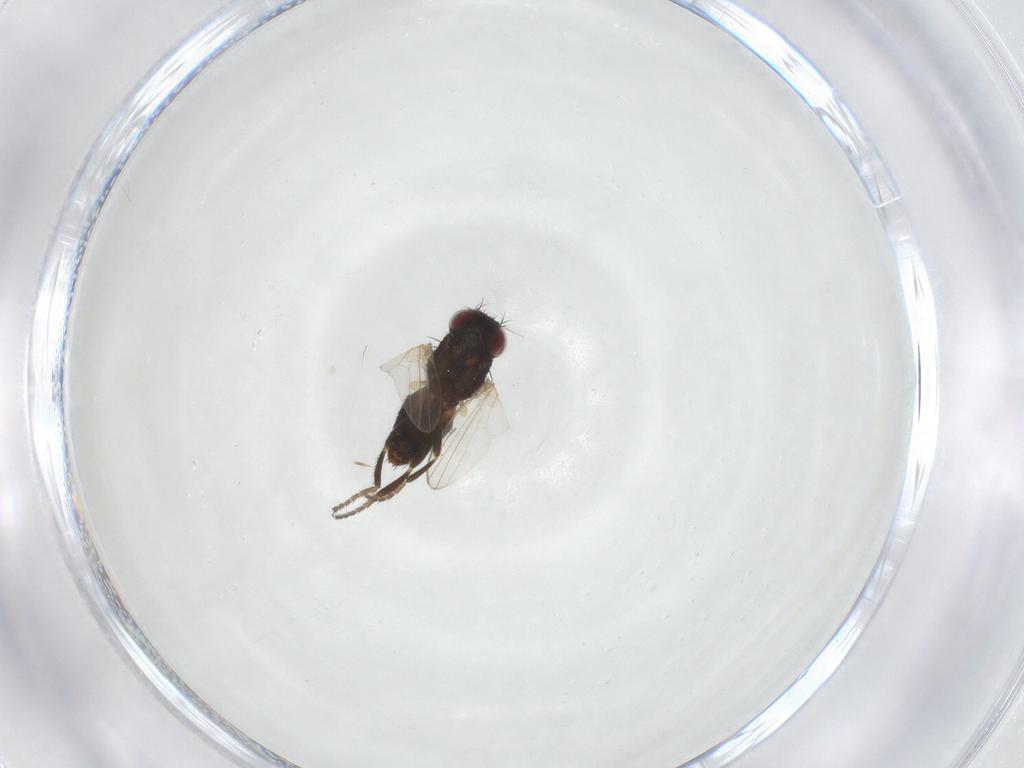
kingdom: Animalia
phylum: Arthropoda
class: Insecta
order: Diptera
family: Milichiidae
